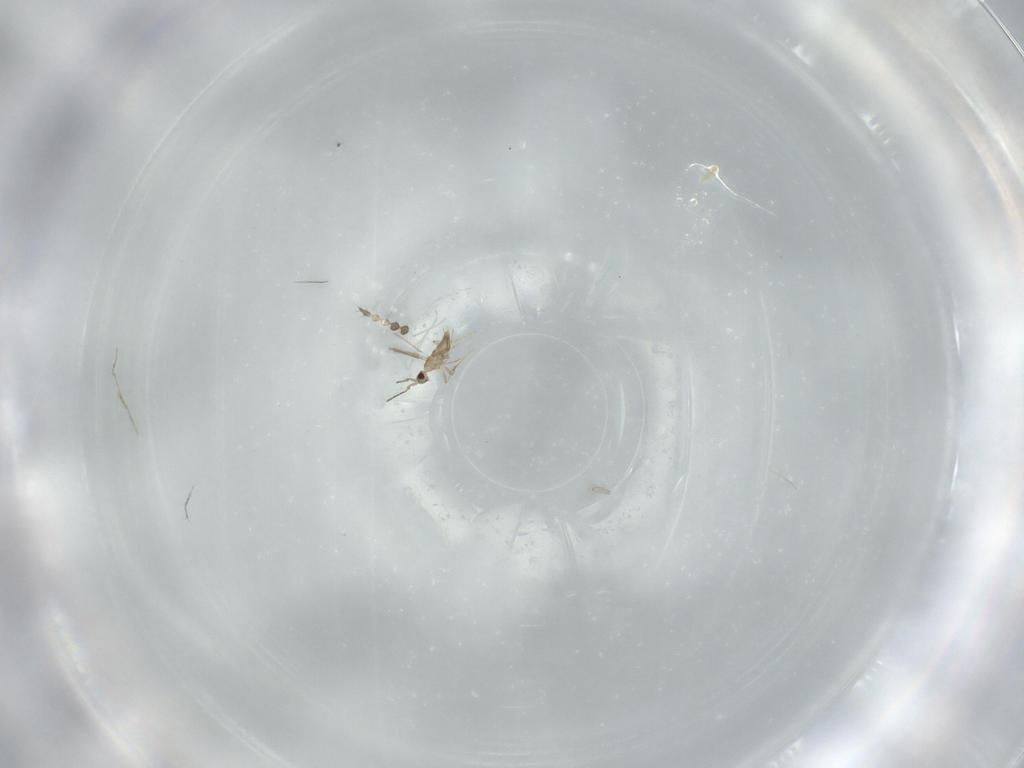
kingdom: Animalia
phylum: Arthropoda
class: Insecta
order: Hymenoptera
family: Mymaridae
